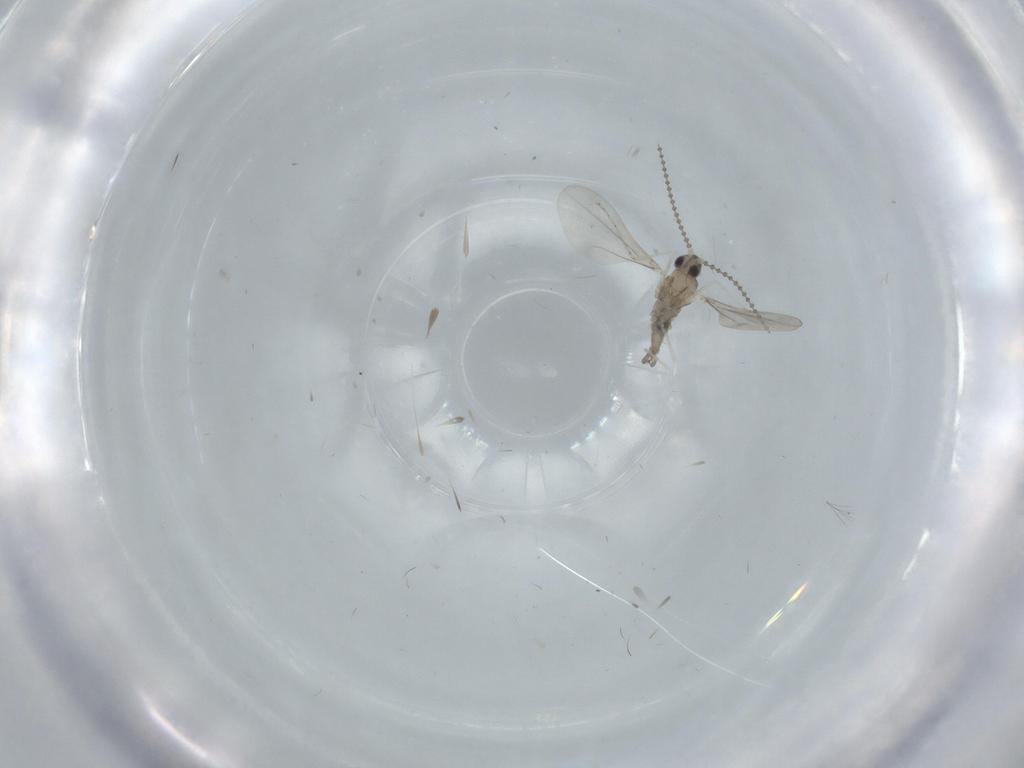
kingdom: Animalia
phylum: Arthropoda
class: Insecta
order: Diptera
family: Cecidomyiidae
